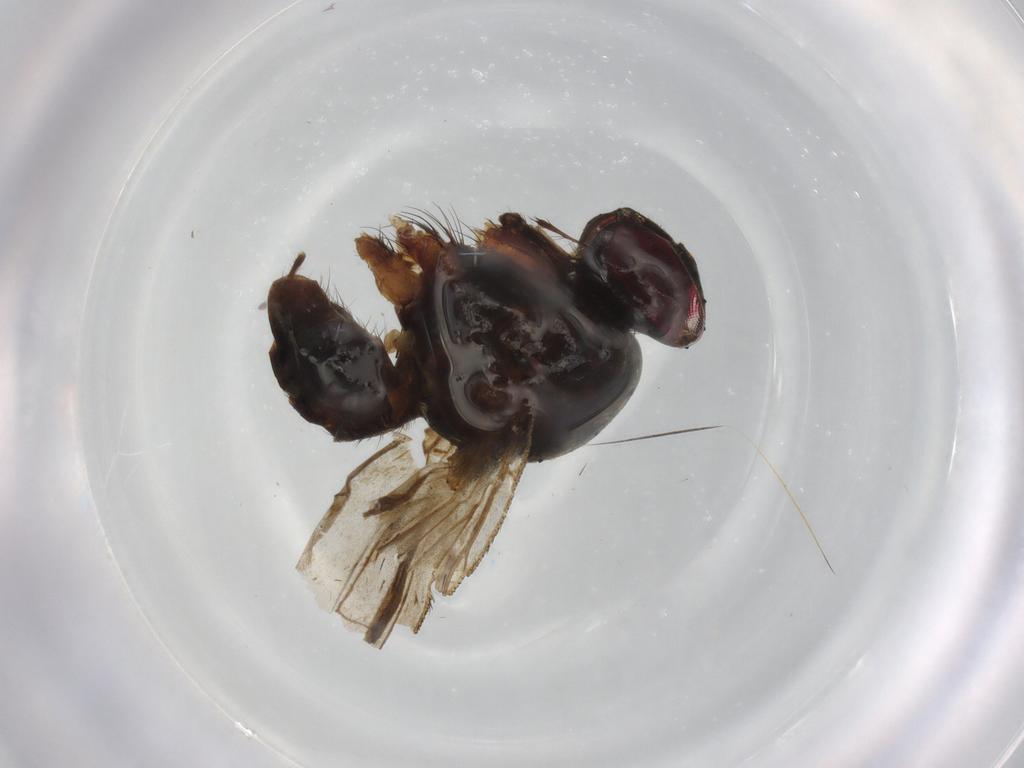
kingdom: Animalia
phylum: Arthropoda
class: Insecta
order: Diptera
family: Muscidae
